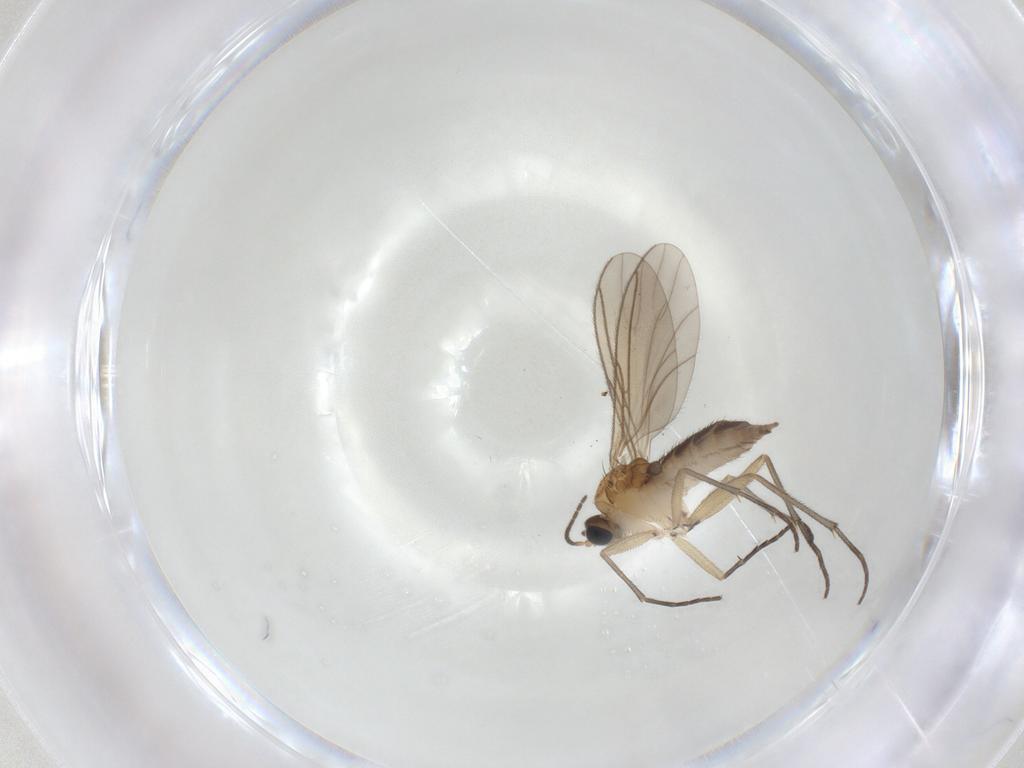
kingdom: Animalia
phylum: Arthropoda
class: Insecta
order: Diptera
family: Sciaridae
